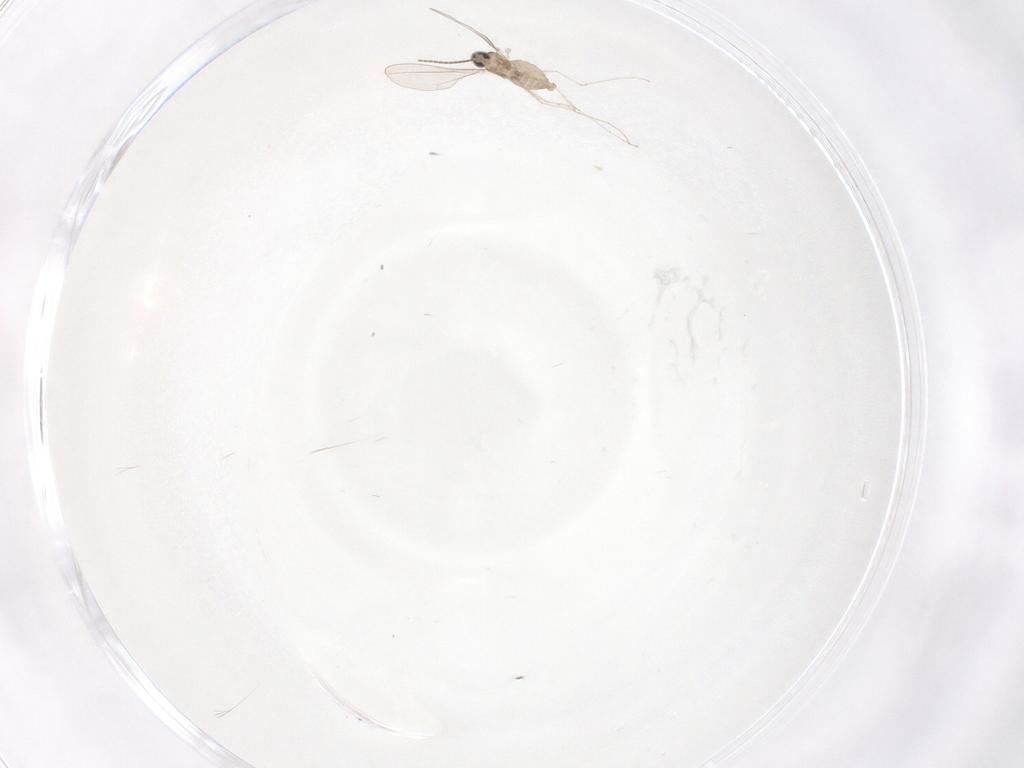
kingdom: Animalia
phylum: Arthropoda
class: Insecta
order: Diptera
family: Cecidomyiidae
